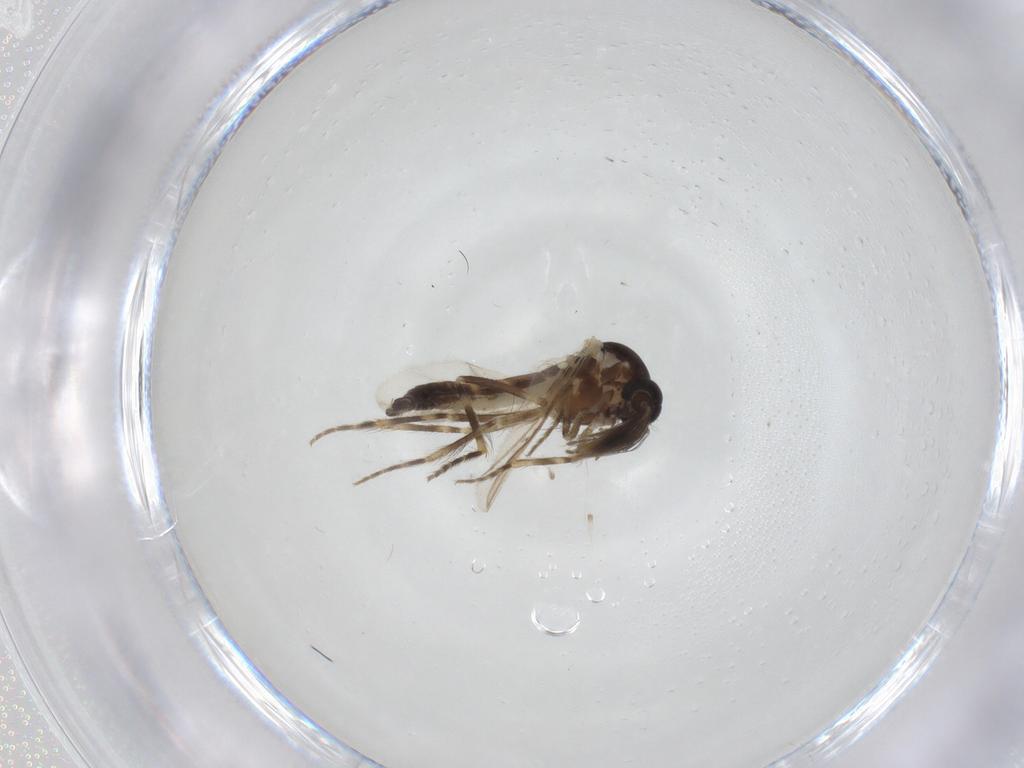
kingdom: Animalia
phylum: Arthropoda
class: Insecta
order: Diptera
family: Ceratopogonidae
